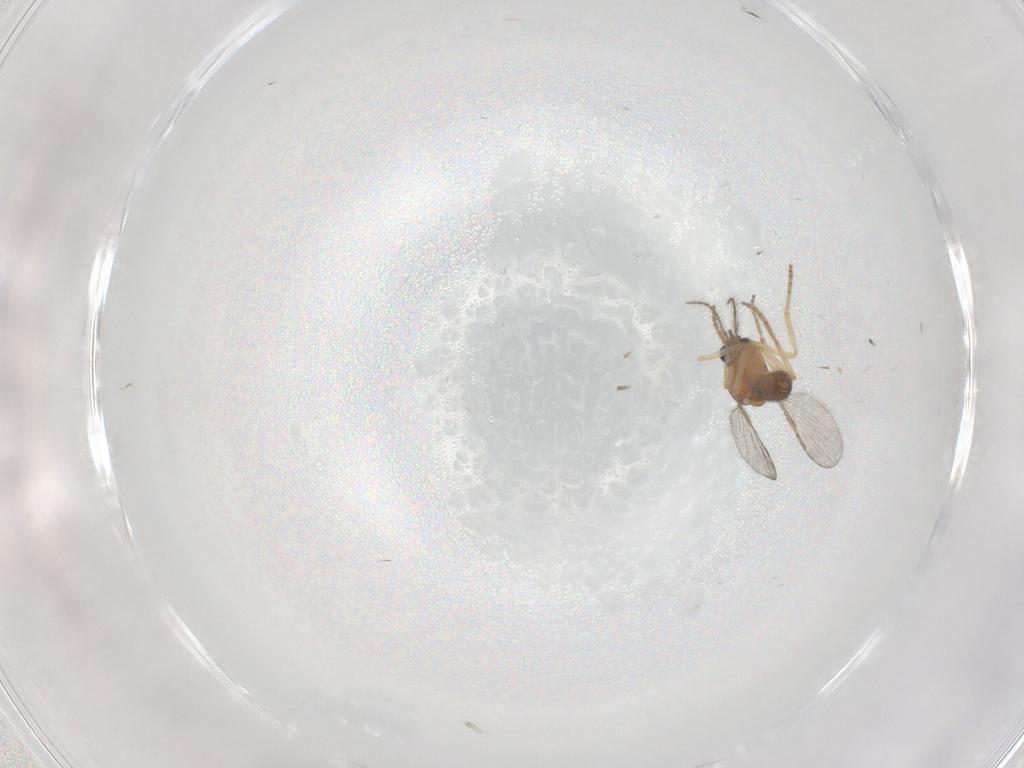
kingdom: Animalia
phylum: Arthropoda
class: Insecta
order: Diptera
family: Ceratopogonidae
